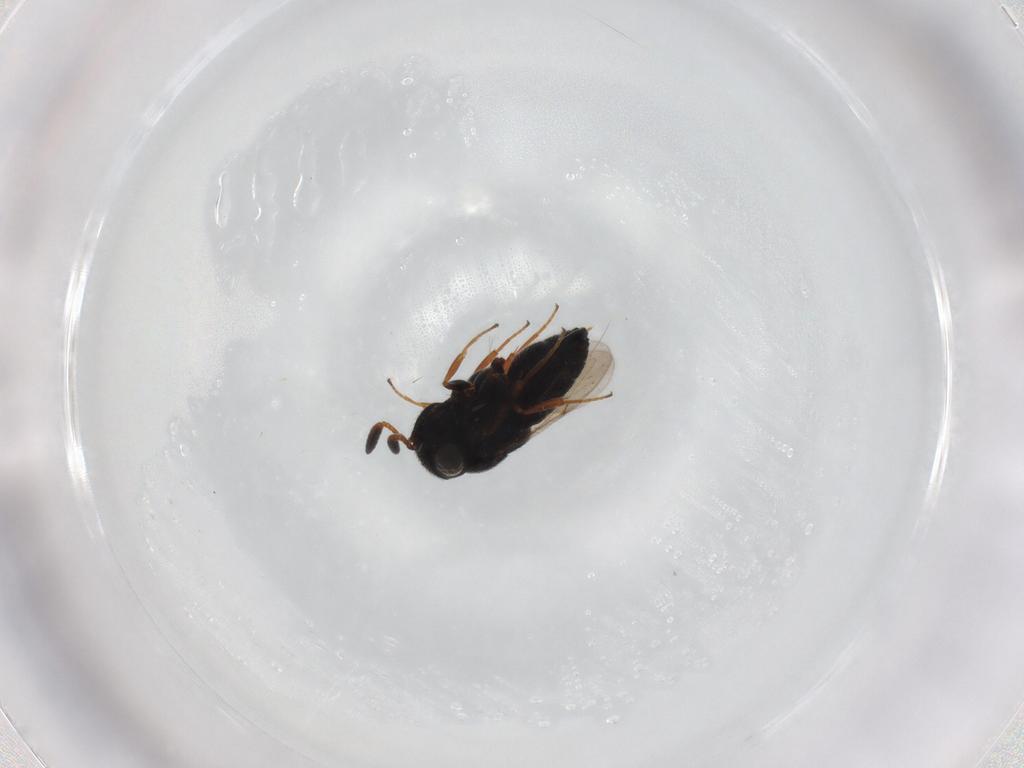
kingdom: Animalia
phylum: Arthropoda
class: Insecta
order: Hymenoptera
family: Scelionidae
